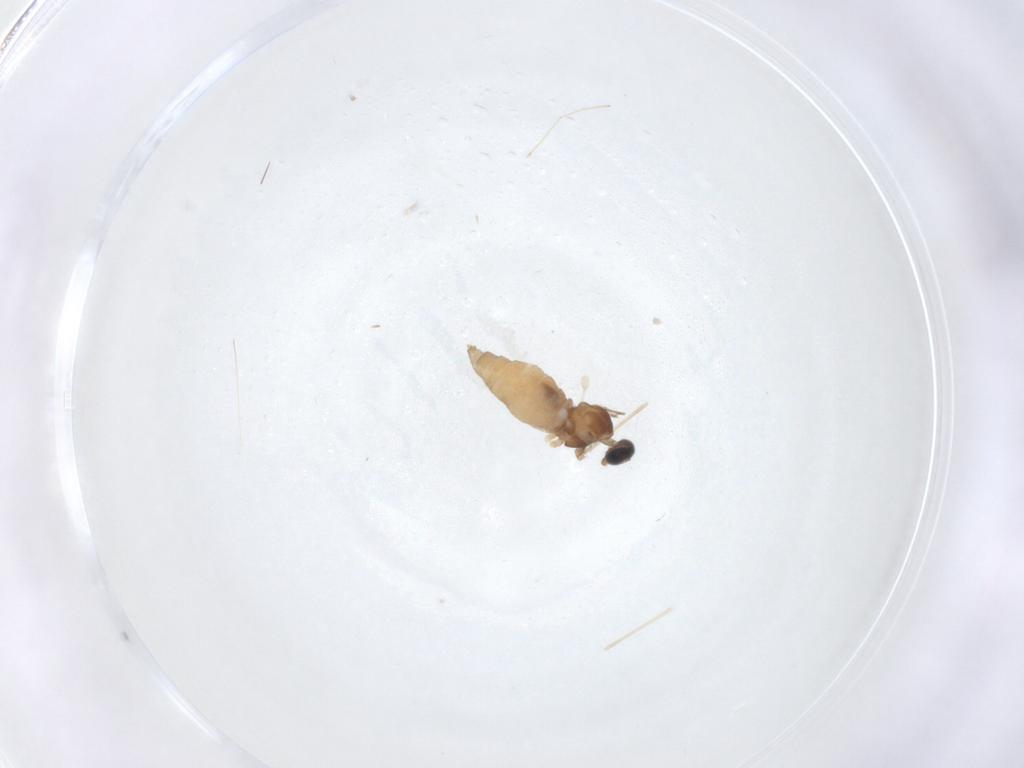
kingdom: Animalia
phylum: Arthropoda
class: Insecta
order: Diptera
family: Cecidomyiidae
